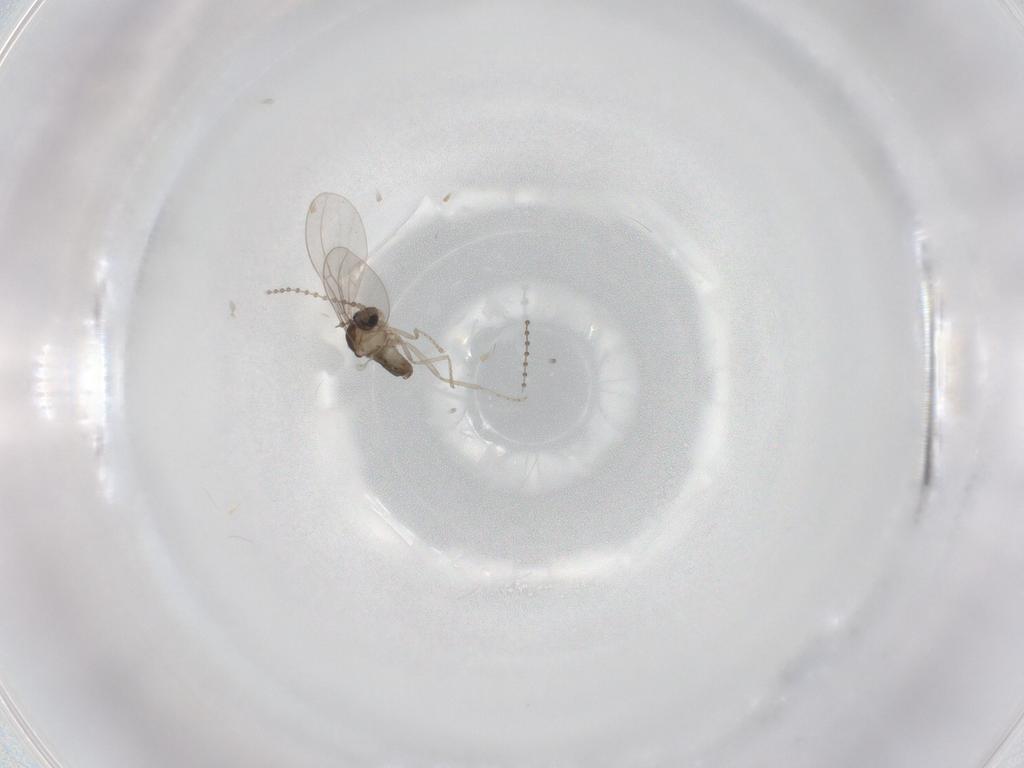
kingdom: Animalia
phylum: Arthropoda
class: Insecta
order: Diptera
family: Cecidomyiidae
